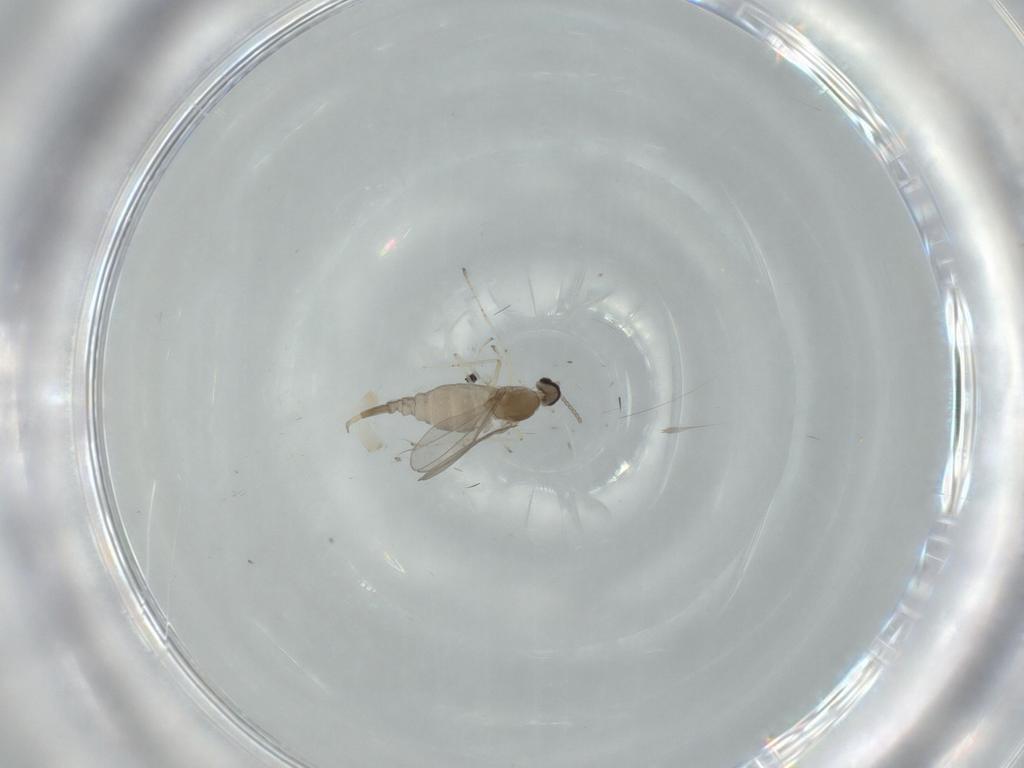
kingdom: Animalia
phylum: Arthropoda
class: Insecta
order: Diptera
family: Cecidomyiidae
